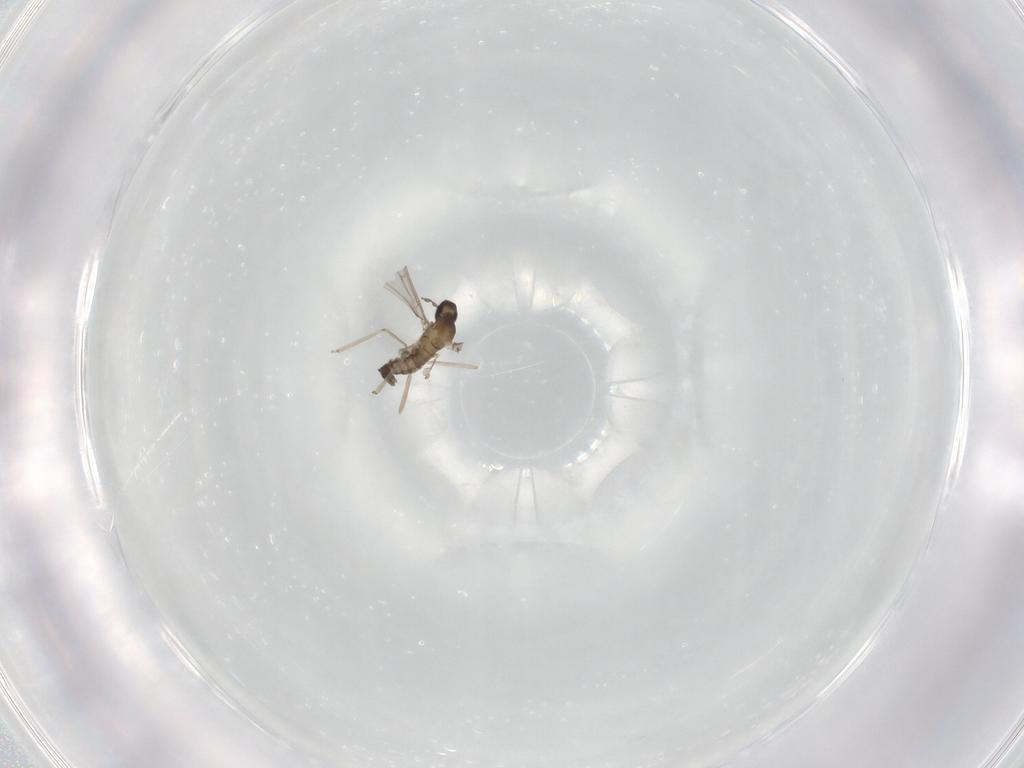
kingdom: Animalia
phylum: Arthropoda
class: Insecta
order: Diptera
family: Cecidomyiidae
